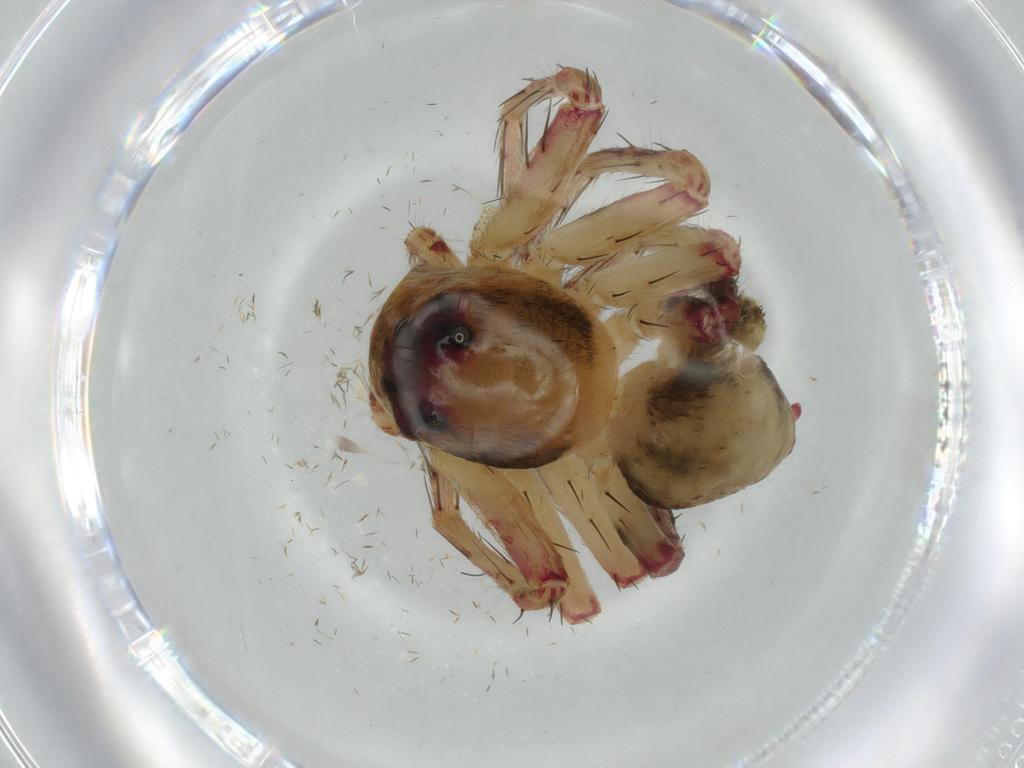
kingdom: Animalia
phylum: Arthropoda
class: Arachnida
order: Araneae
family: Oxyopidae
